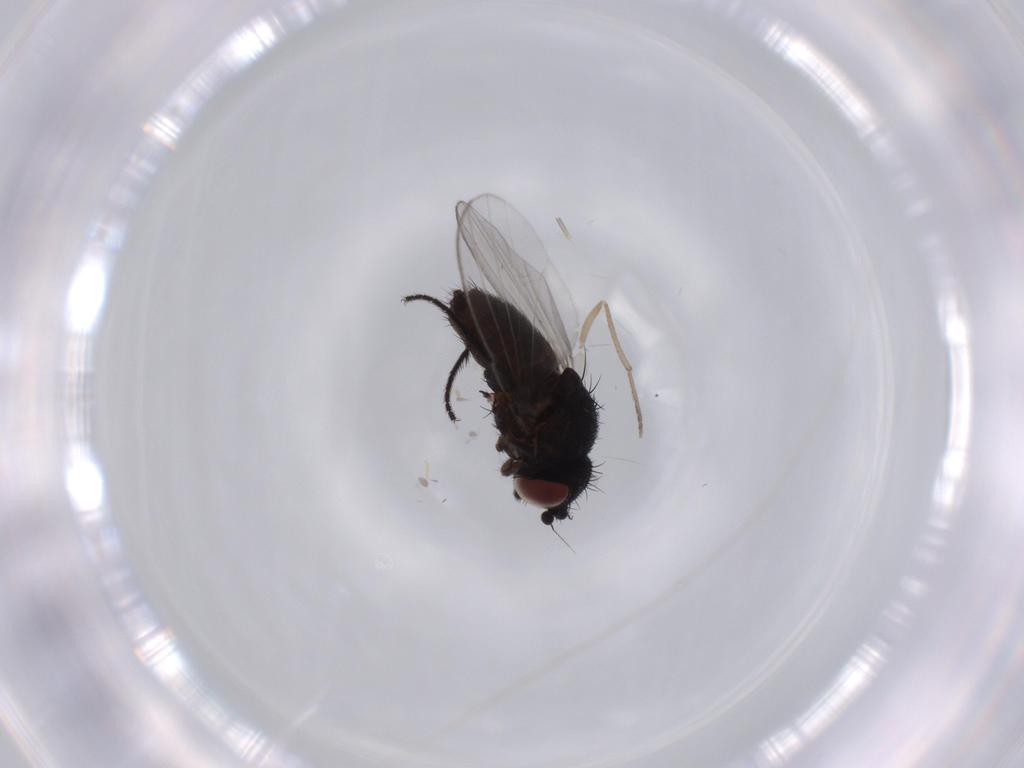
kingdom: Animalia
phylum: Arthropoda
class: Insecta
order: Diptera
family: Milichiidae
